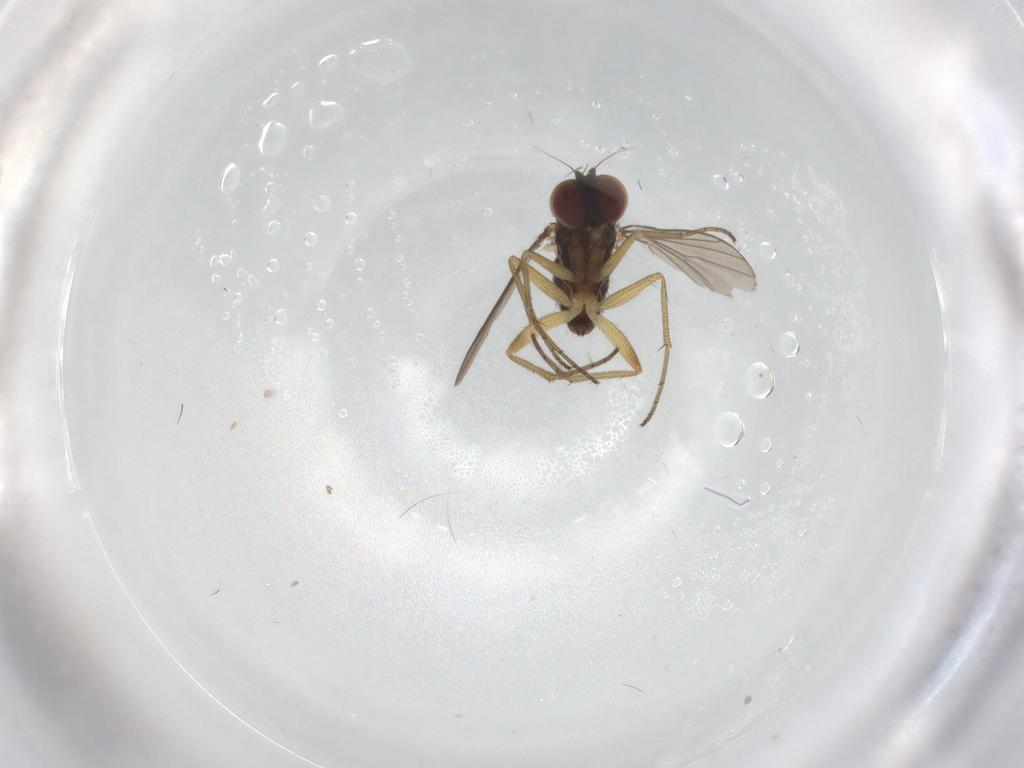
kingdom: Animalia
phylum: Arthropoda
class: Insecta
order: Diptera
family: Dolichopodidae
